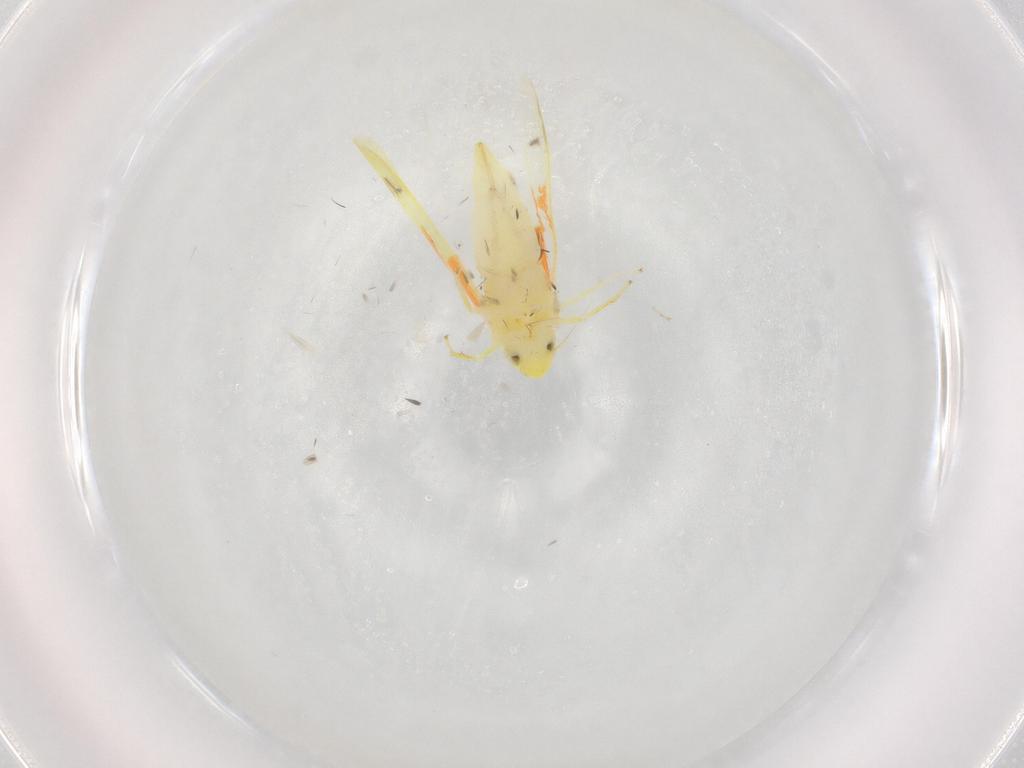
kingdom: Animalia
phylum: Arthropoda
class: Insecta
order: Hemiptera
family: Cicadellidae
